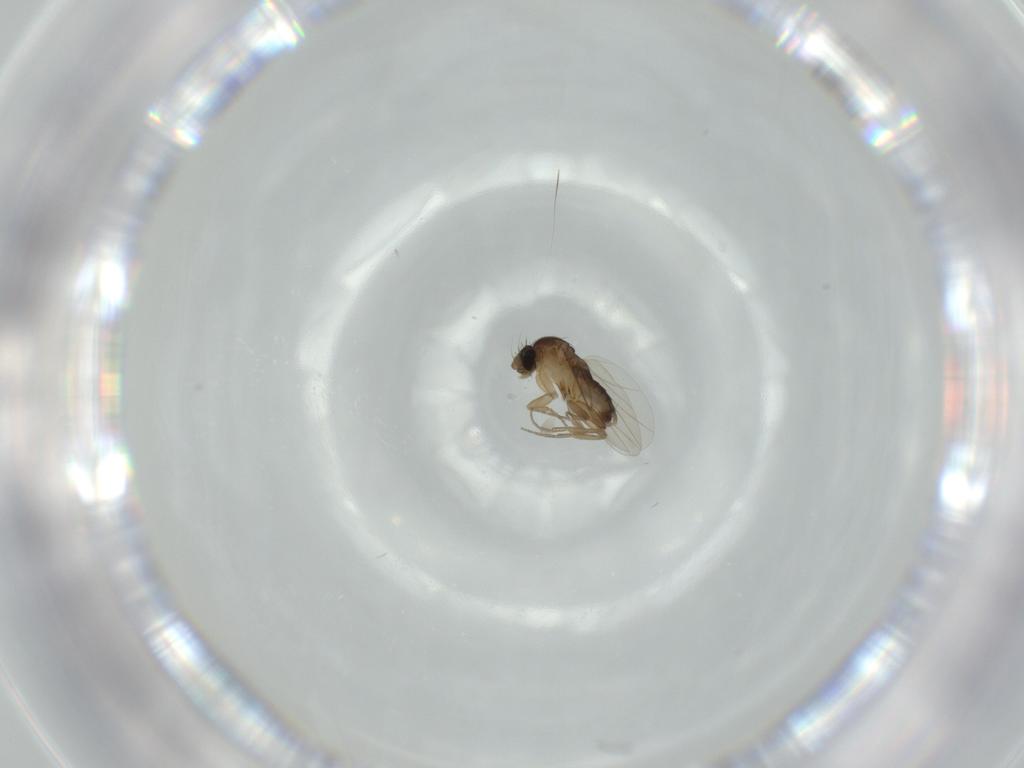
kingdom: Animalia
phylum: Arthropoda
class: Insecta
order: Diptera
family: Phoridae
